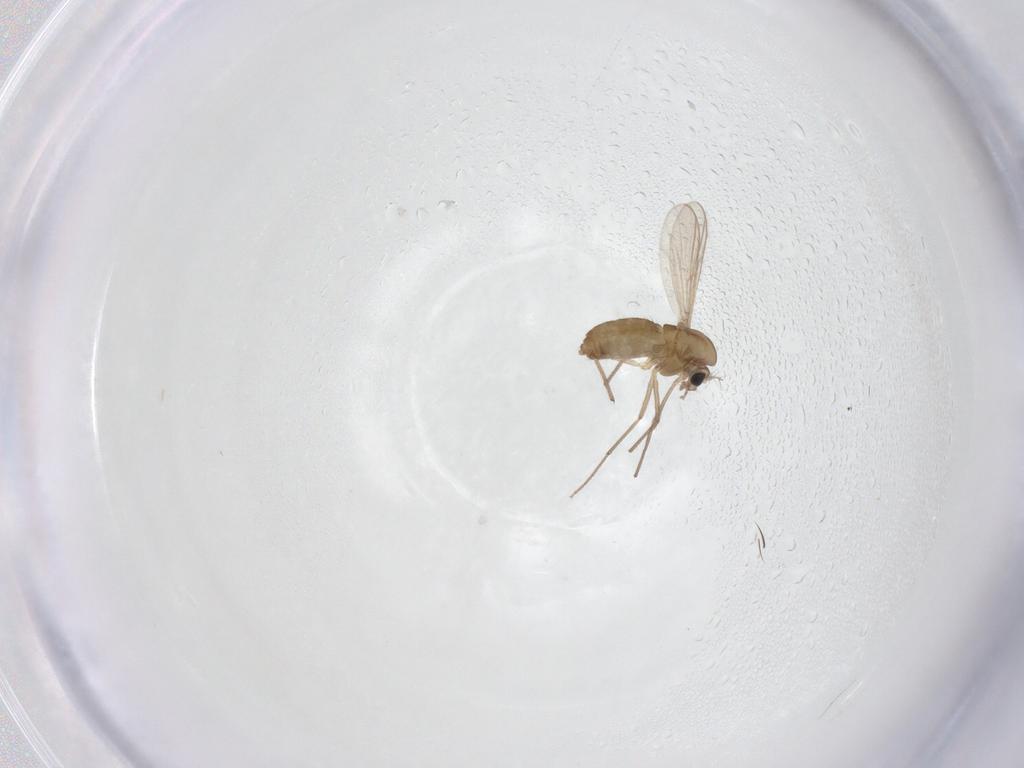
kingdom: Animalia
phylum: Arthropoda
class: Insecta
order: Diptera
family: Chironomidae
